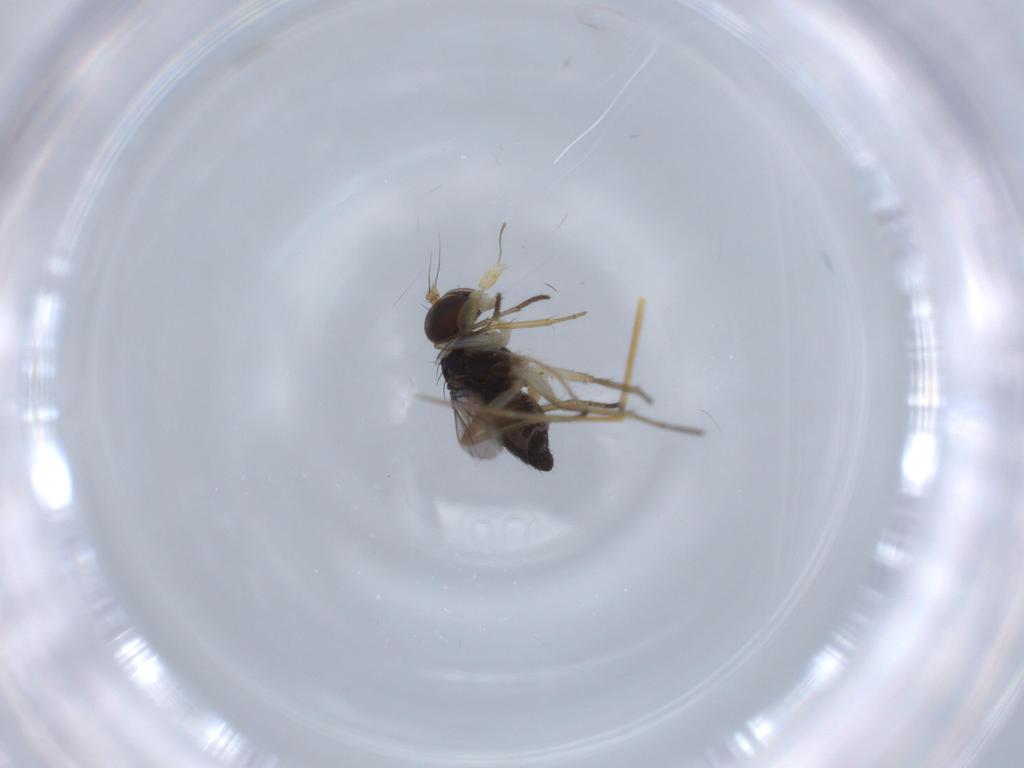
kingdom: Animalia
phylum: Arthropoda
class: Insecta
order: Diptera
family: Dolichopodidae
